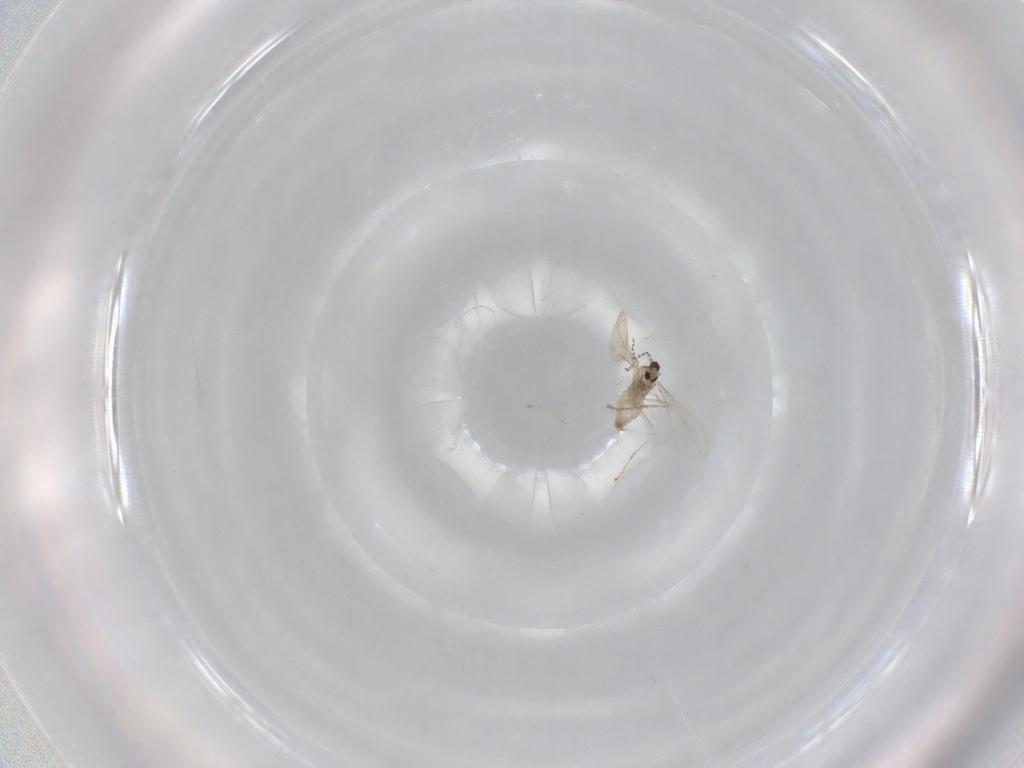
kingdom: Animalia
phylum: Arthropoda
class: Insecta
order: Diptera
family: Cecidomyiidae
